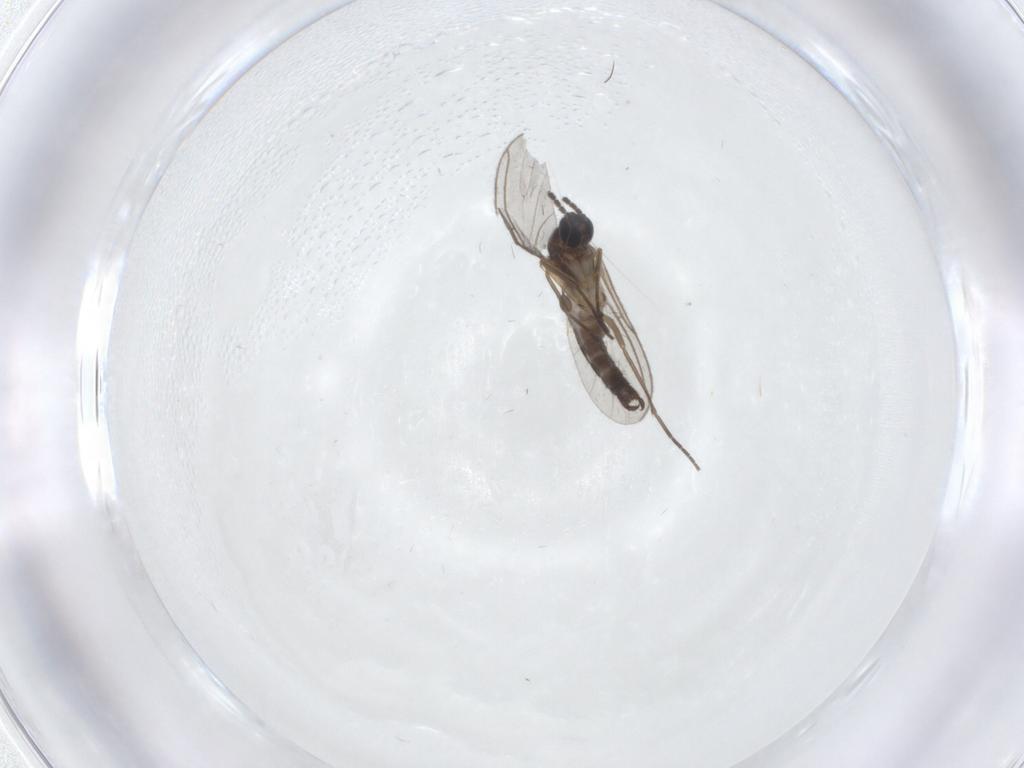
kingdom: Animalia
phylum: Arthropoda
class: Insecta
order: Diptera
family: Sciaridae
